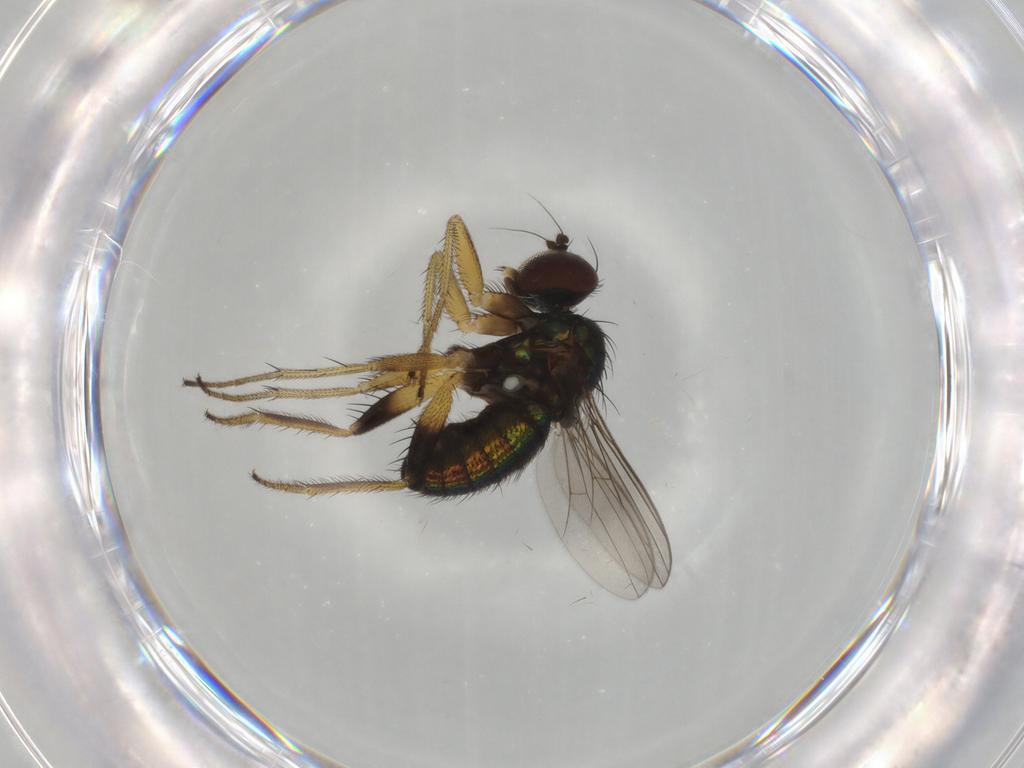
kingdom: Animalia
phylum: Arthropoda
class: Insecta
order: Diptera
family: Dolichopodidae
